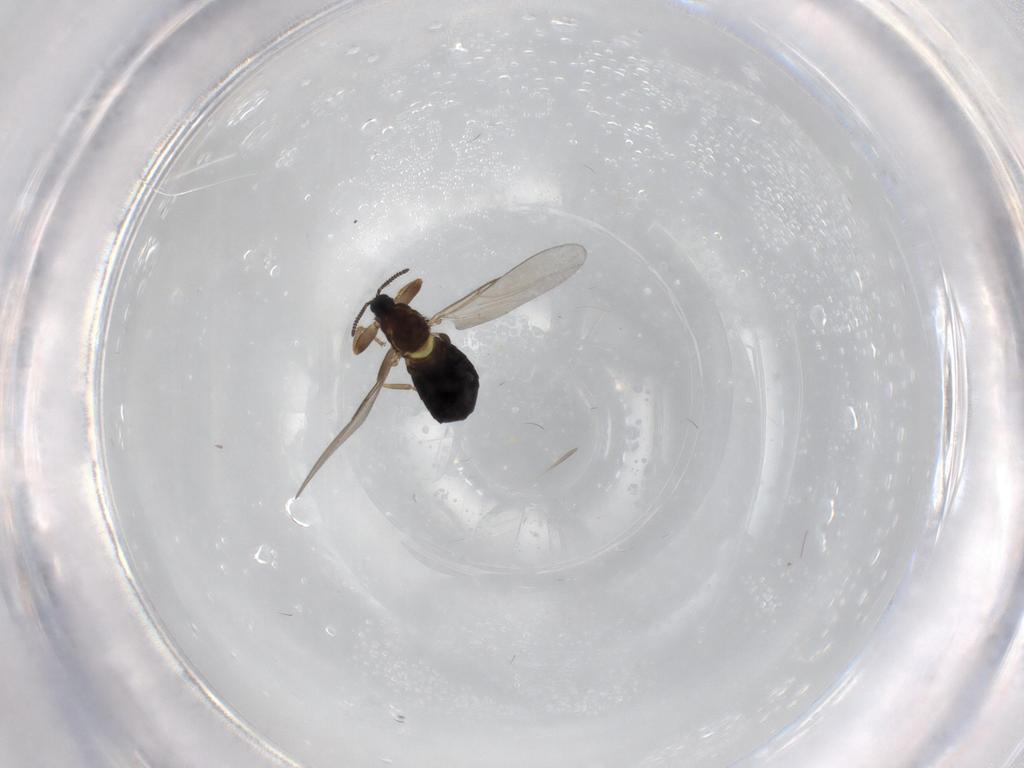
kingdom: Animalia
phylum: Arthropoda
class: Insecta
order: Diptera
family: Scatopsidae
